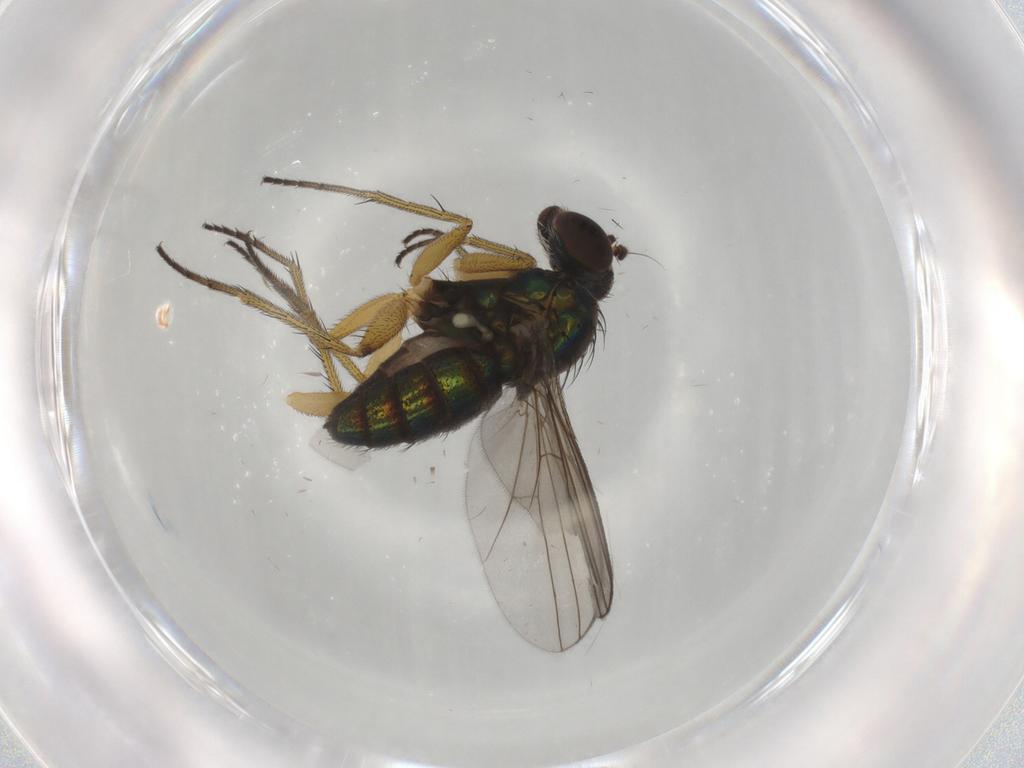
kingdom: Animalia
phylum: Arthropoda
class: Insecta
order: Diptera
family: Dolichopodidae
